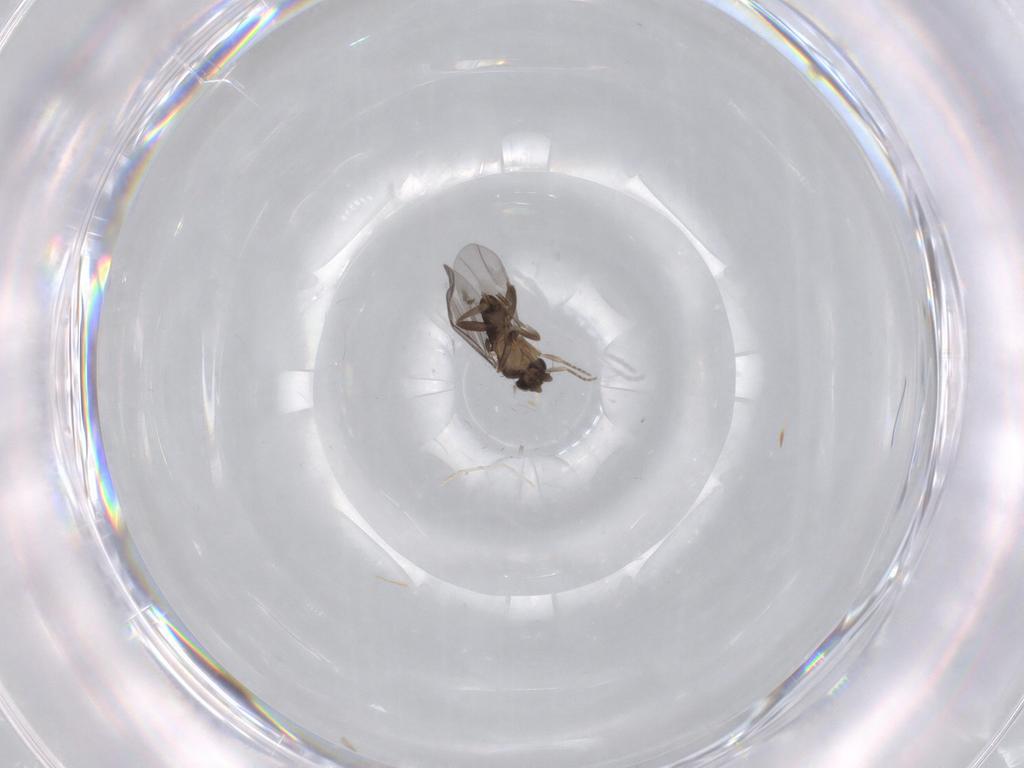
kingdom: Animalia
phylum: Arthropoda
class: Insecta
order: Diptera
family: Cecidomyiidae
